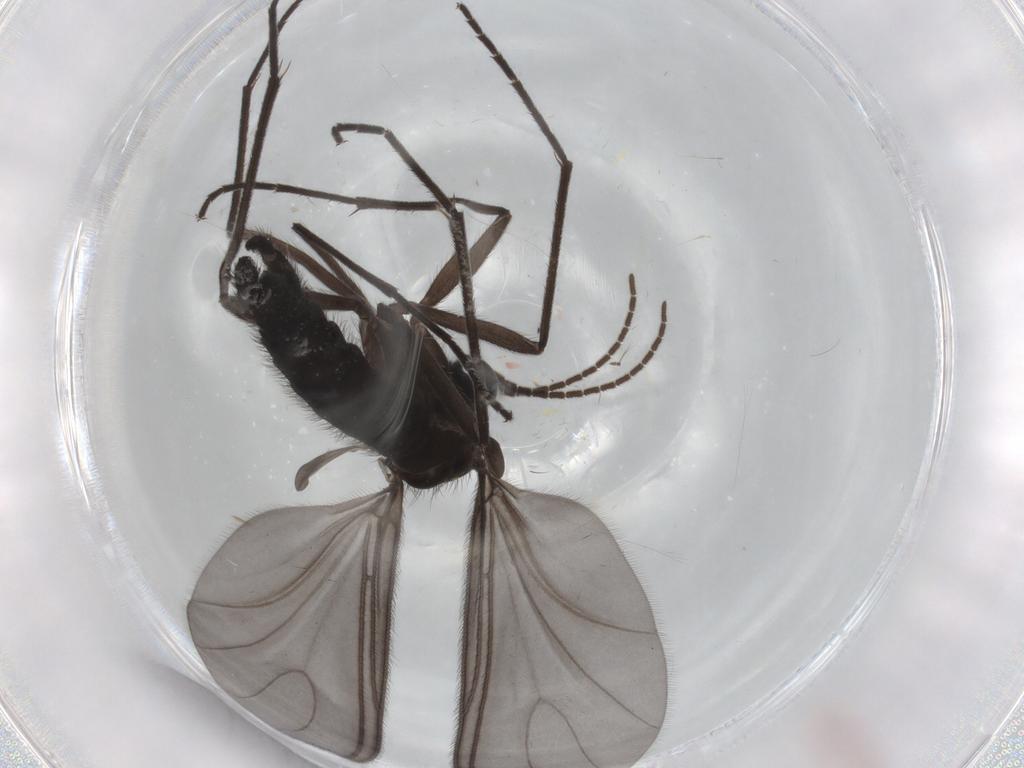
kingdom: Animalia
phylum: Arthropoda
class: Insecta
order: Diptera
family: Sciaridae
